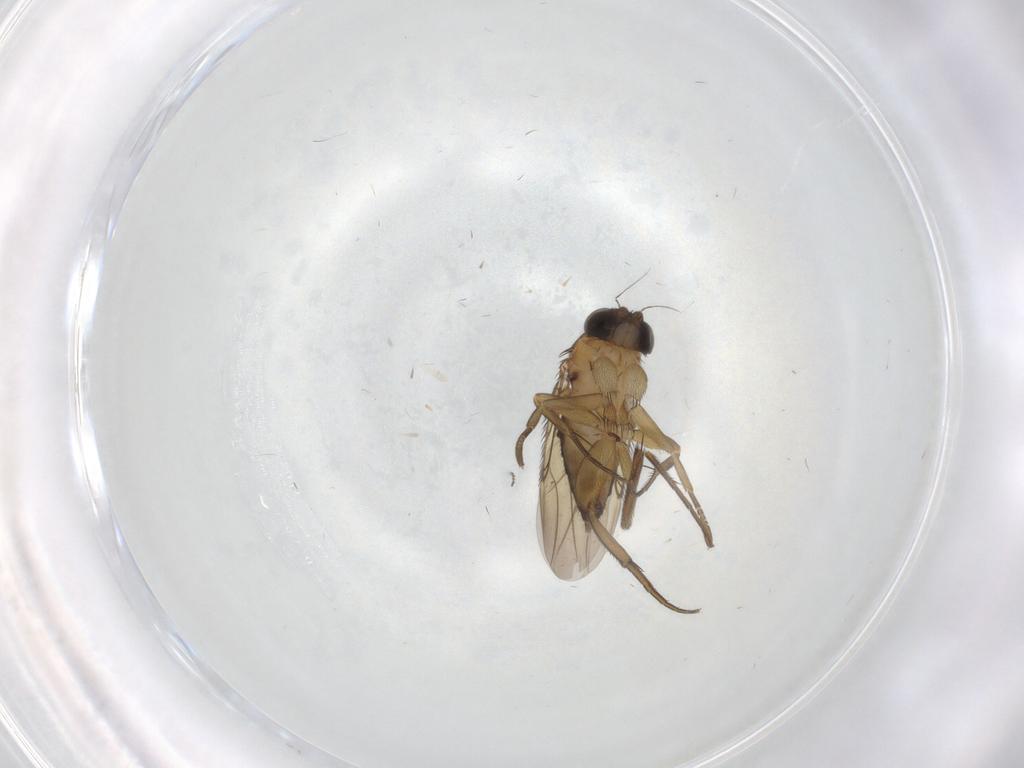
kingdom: Animalia
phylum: Arthropoda
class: Insecta
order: Diptera
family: Phoridae
